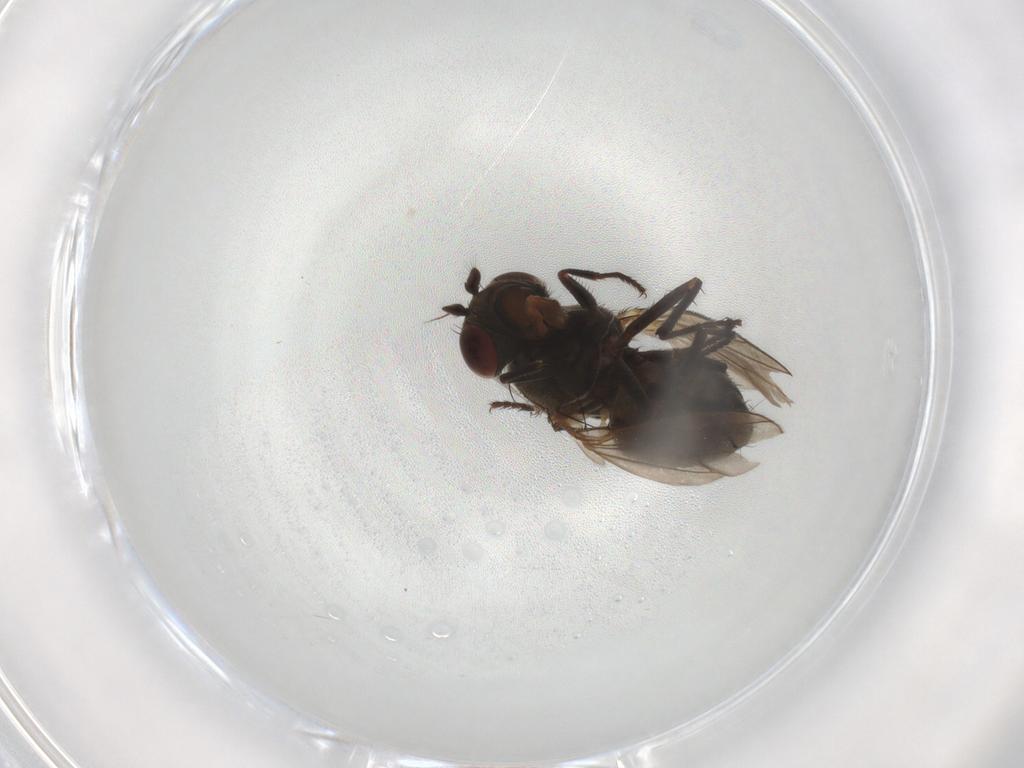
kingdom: Animalia
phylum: Arthropoda
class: Insecta
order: Diptera
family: Ephydridae
